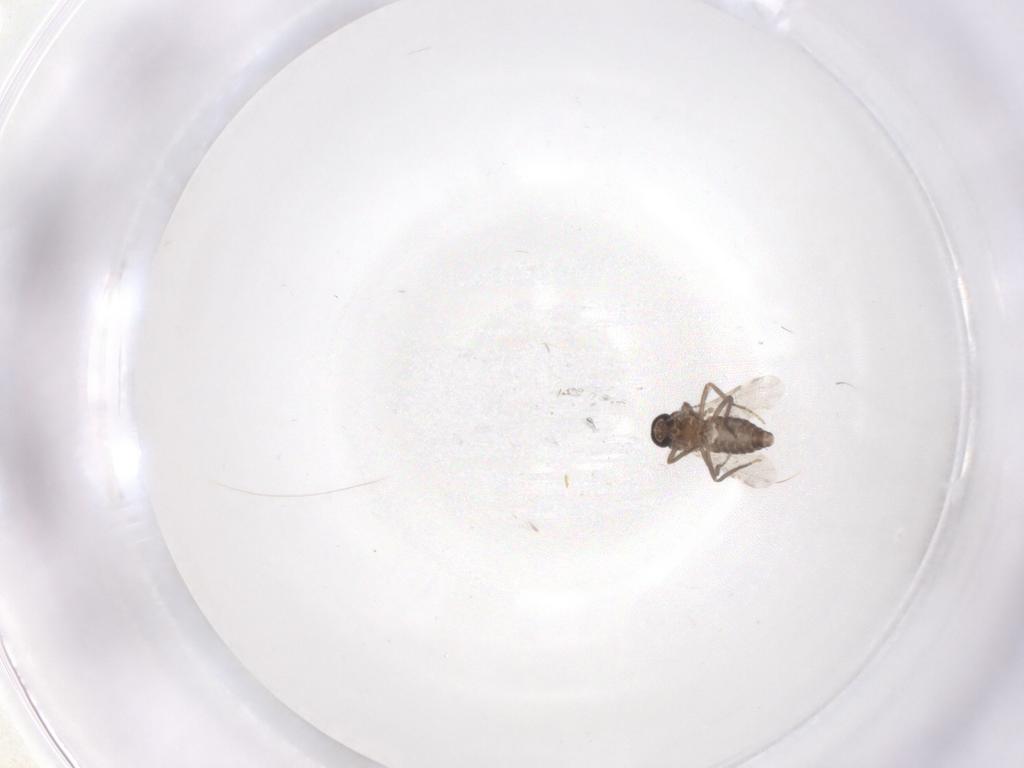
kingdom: Animalia
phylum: Arthropoda
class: Insecta
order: Diptera
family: Ceratopogonidae
